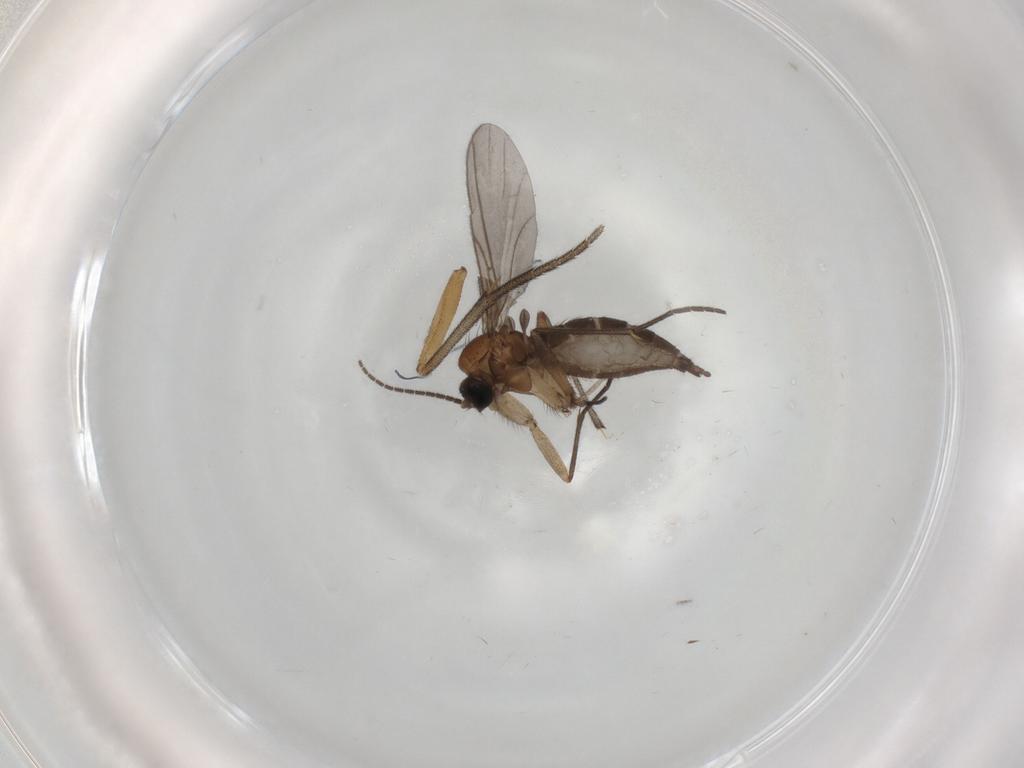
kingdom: Animalia
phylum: Arthropoda
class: Insecta
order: Diptera
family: Sciaridae
